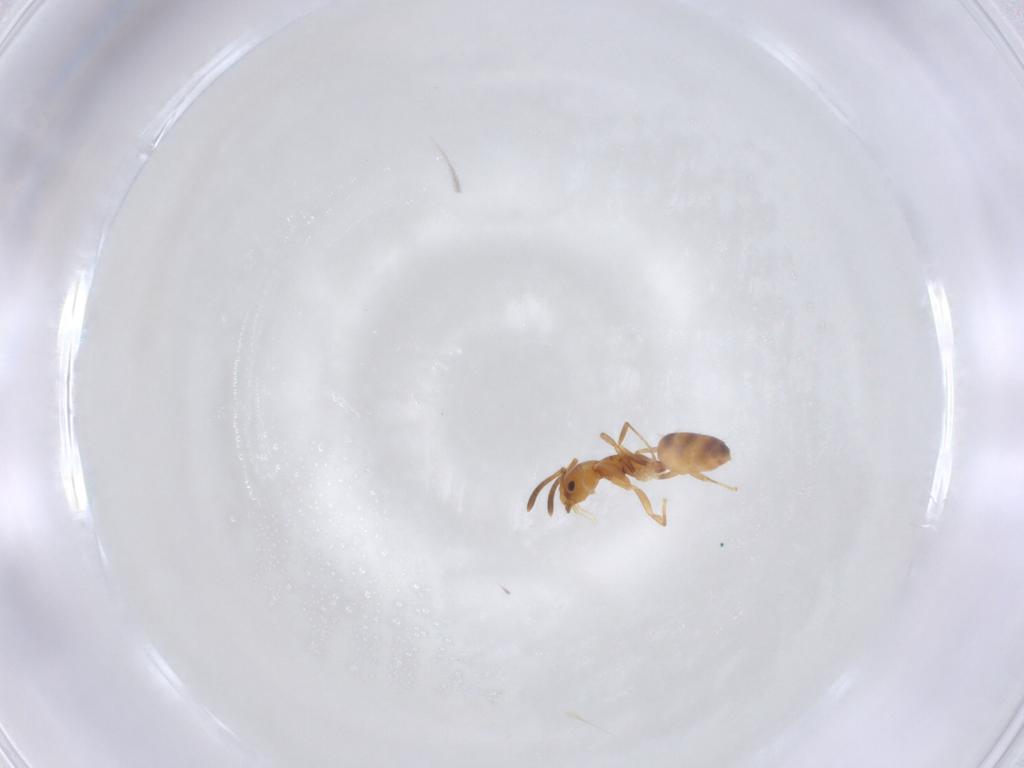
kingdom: Animalia
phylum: Arthropoda
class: Insecta
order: Hymenoptera
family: Formicidae
